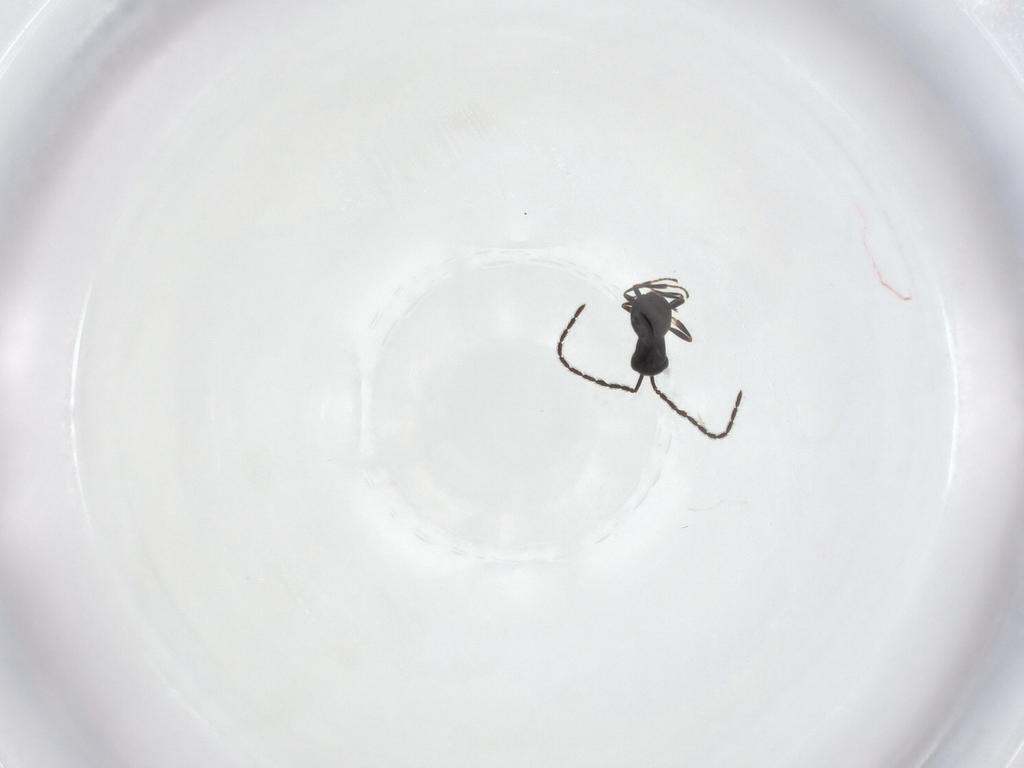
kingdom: Animalia
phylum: Arthropoda
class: Insecta
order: Hymenoptera
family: Scelionidae
